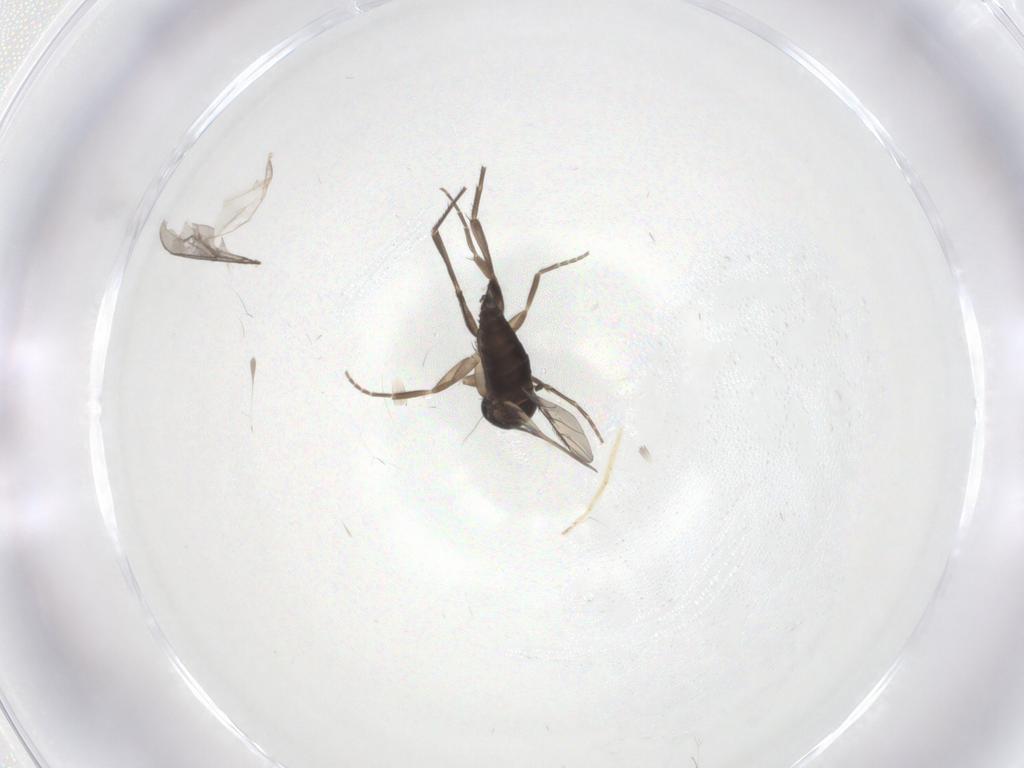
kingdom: Animalia
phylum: Arthropoda
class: Insecta
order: Diptera
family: Phoridae
